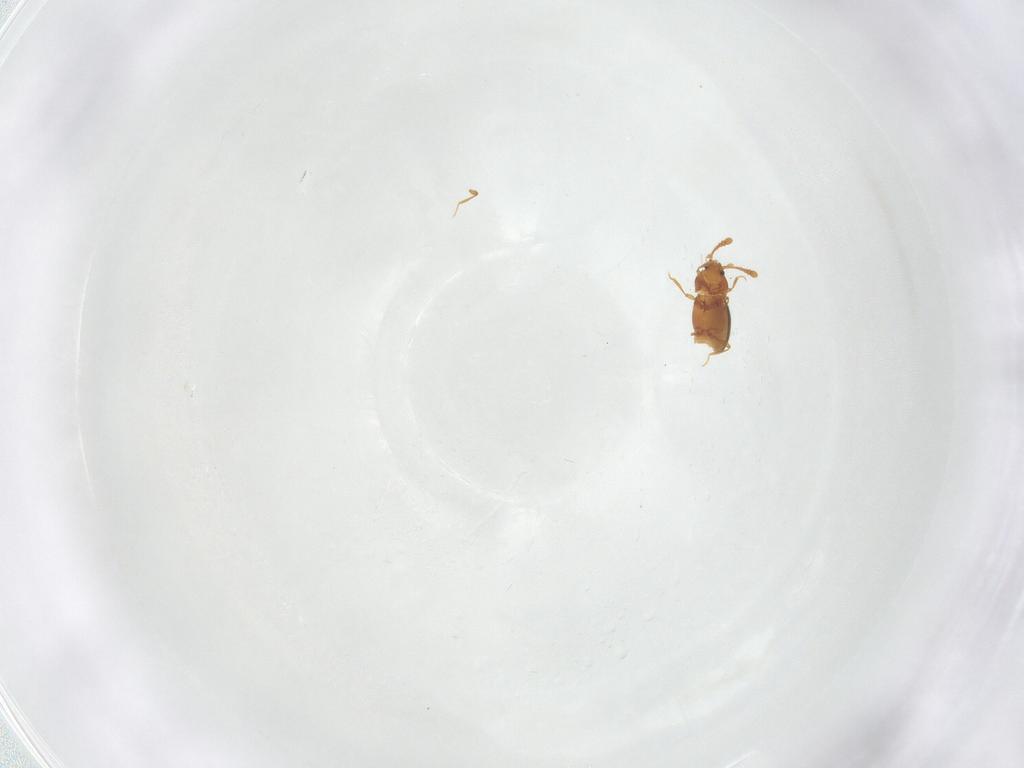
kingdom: Animalia
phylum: Arthropoda
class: Insecta
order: Coleoptera
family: Staphylinidae
